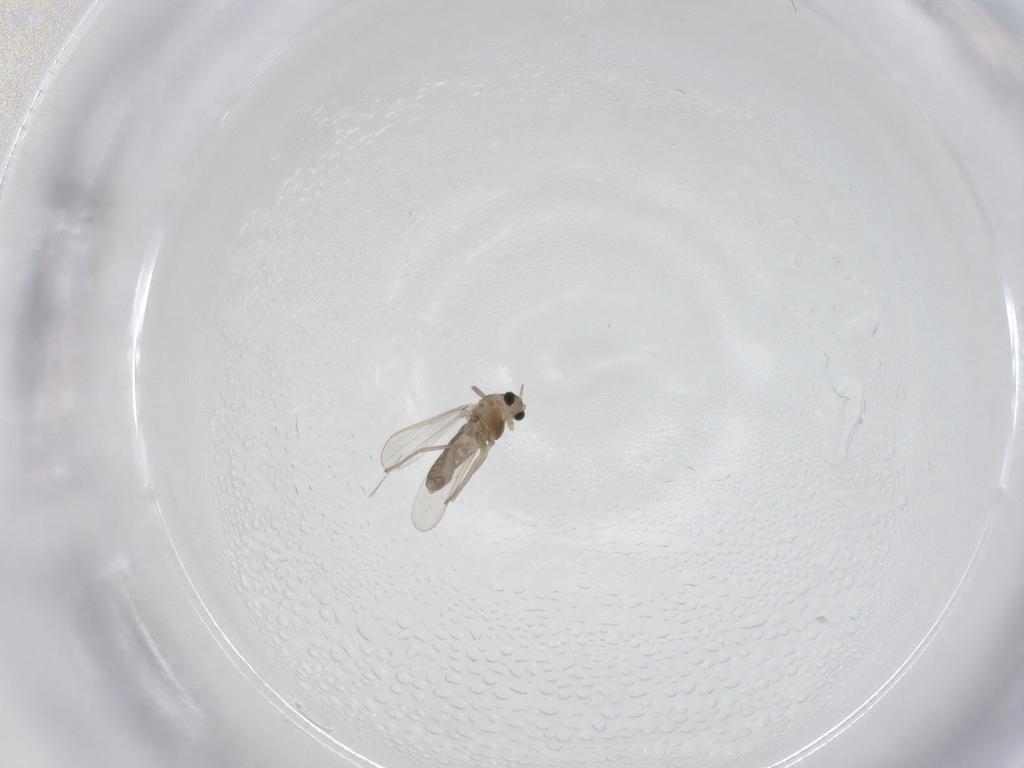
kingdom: Animalia
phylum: Arthropoda
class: Insecta
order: Diptera
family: Chironomidae
